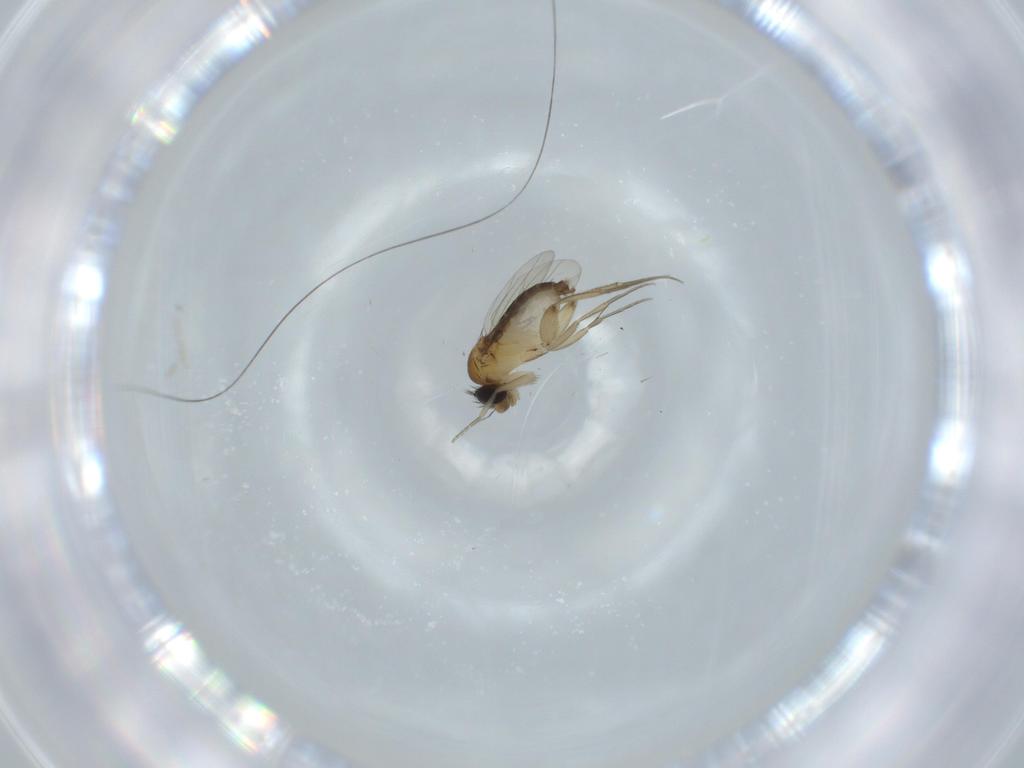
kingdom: Animalia
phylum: Arthropoda
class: Insecta
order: Diptera
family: Phoridae
